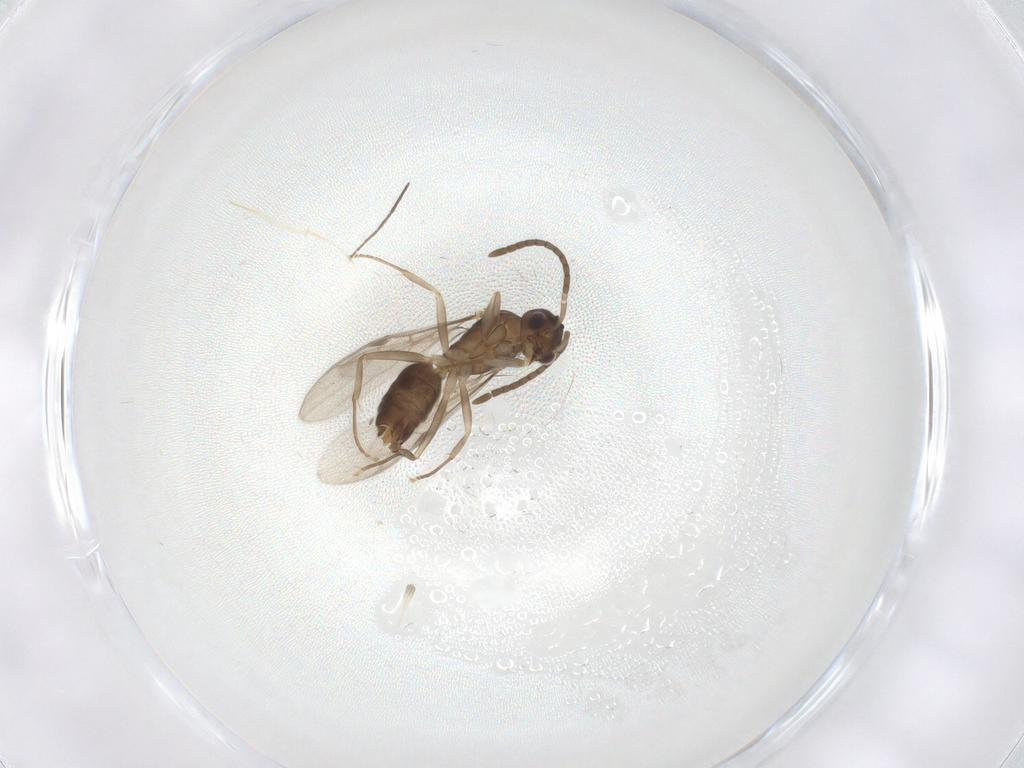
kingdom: Animalia
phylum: Arthropoda
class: Insecta
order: Hymenoptera
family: Formicidae
